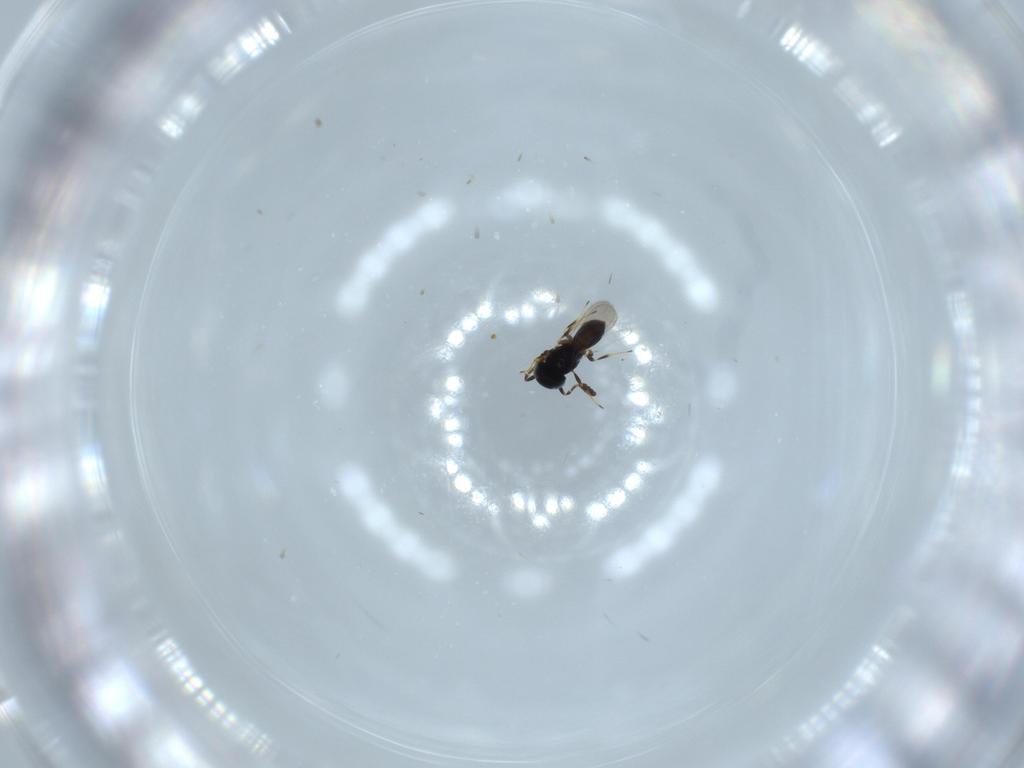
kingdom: Animalia
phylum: Arthropoda
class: Insecta
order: Hymenoptera
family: Scelionidae
